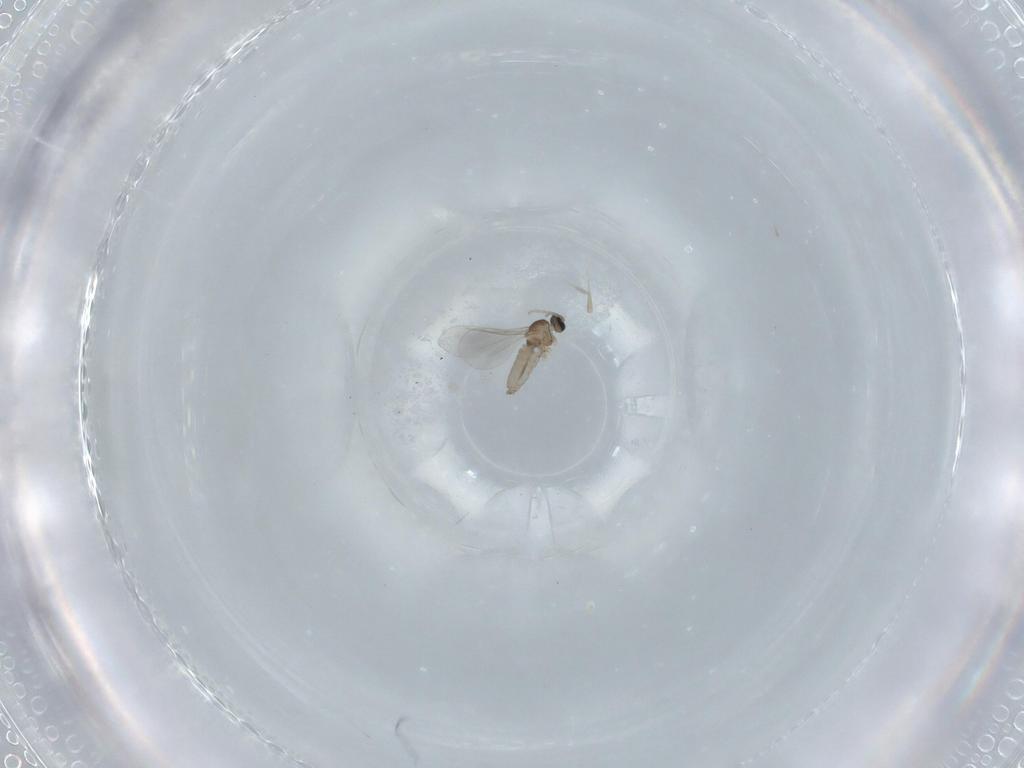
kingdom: Animalia
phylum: Arthropoda
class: Insecta
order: Diptera
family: Cecidomyiidae
